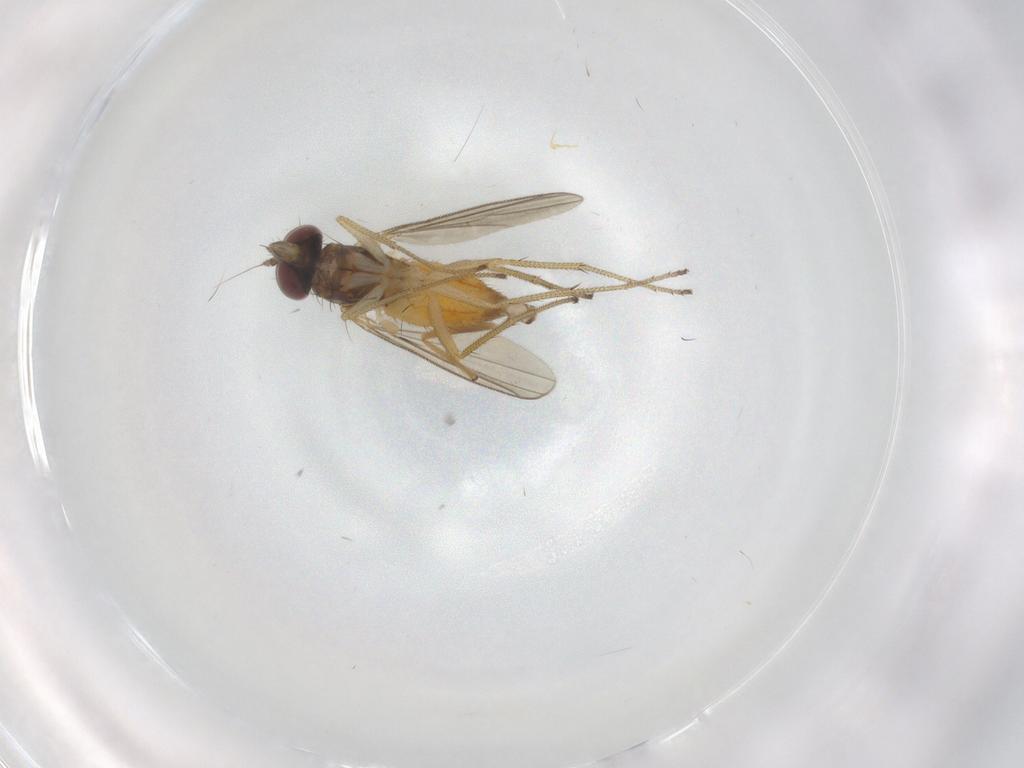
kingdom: Animalia
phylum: Arthropoda
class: Insecta
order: Diptera
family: Dolichopodidae
